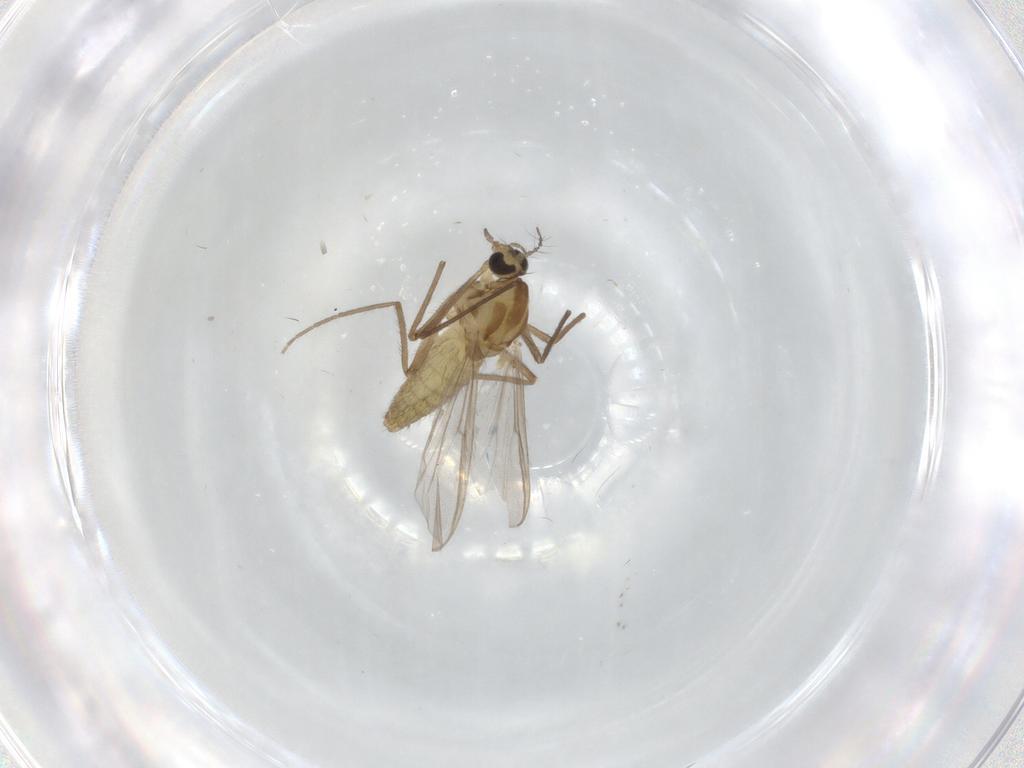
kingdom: Animalia
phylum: Arthropoda
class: Insecta
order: Diptera
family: Chironomidae
